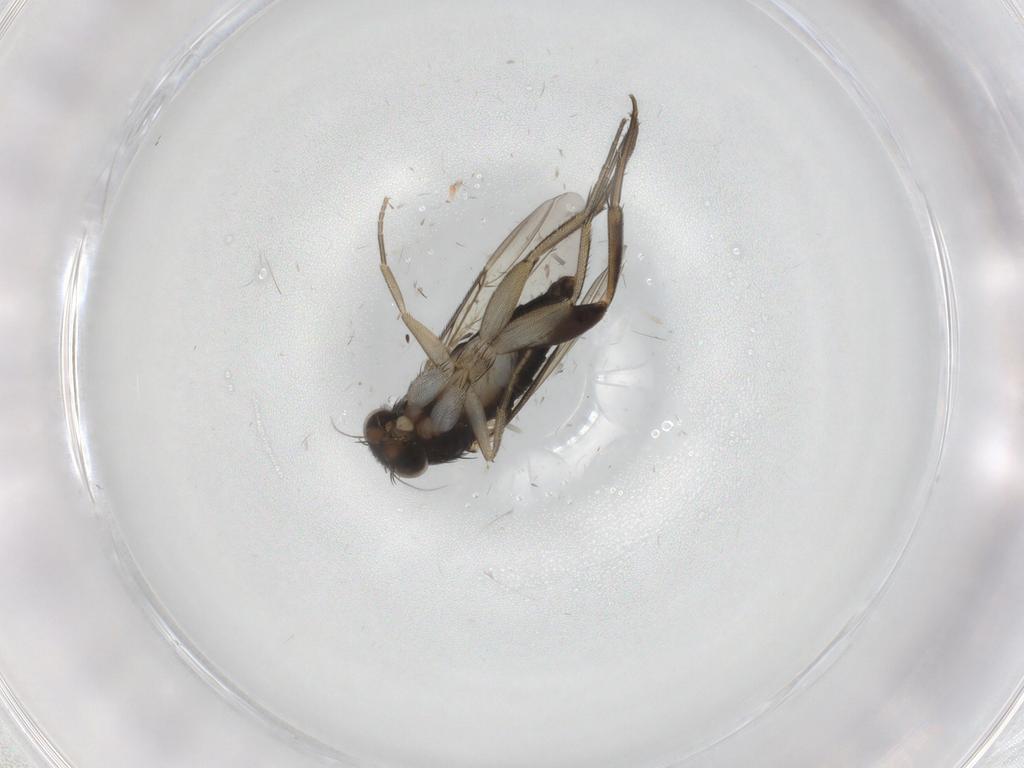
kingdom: Animalia
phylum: Arthropoda
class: Insecta
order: Diptera
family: Phoridae
